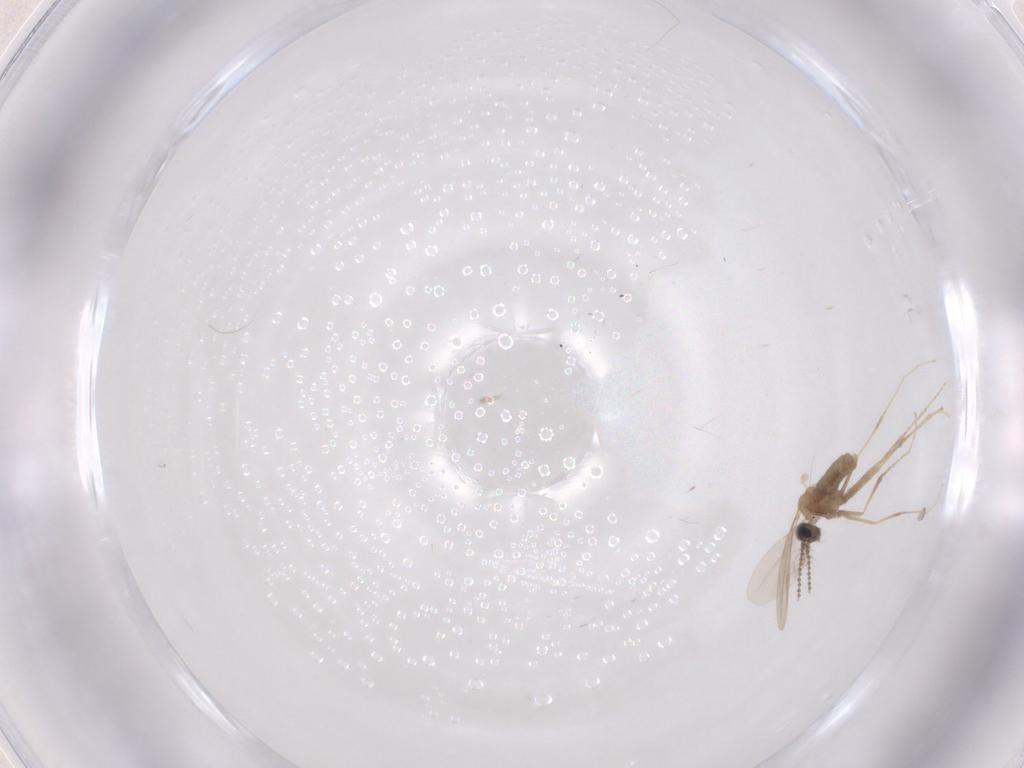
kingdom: Animalia
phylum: Arthropoda
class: Insecta
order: Diptera
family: Cecidomyiidae
